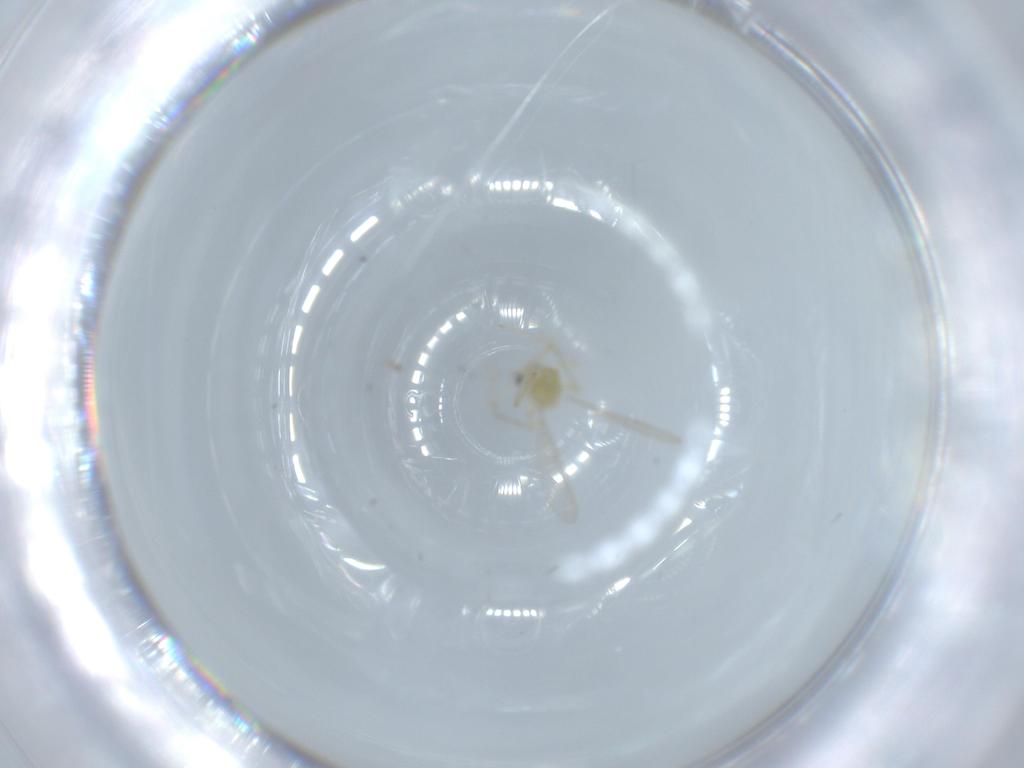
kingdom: Animalia
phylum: Arthropoda
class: Insecta
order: Diptera
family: Chironomidae
